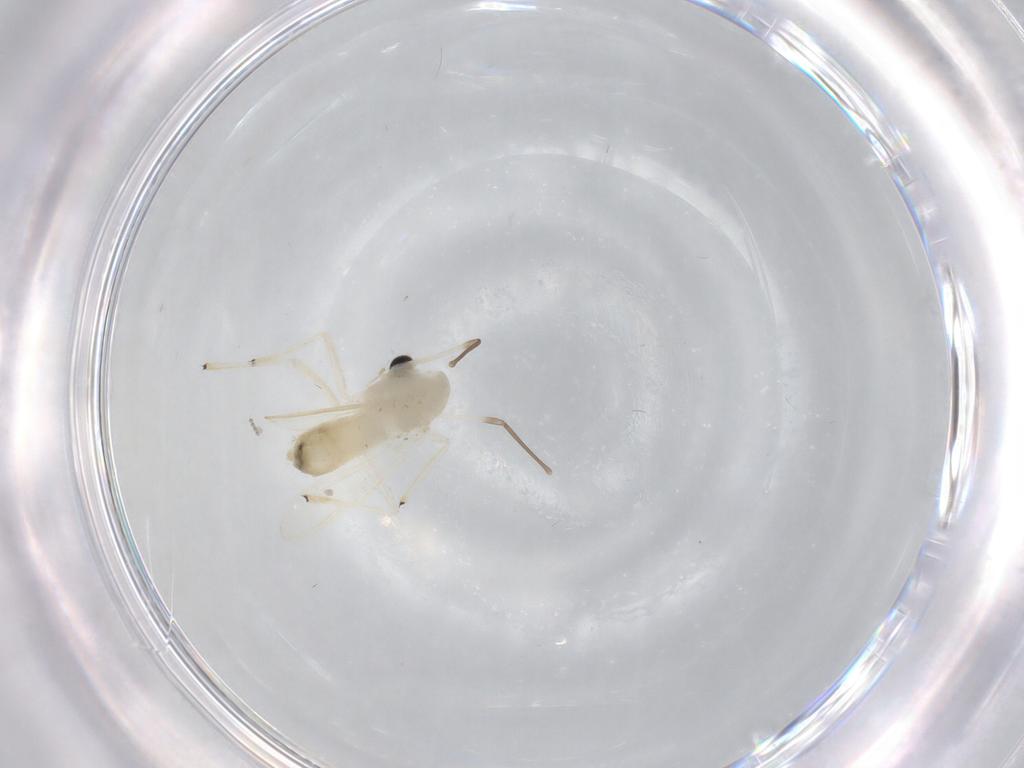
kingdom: Animalia
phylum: Arthropoda
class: Insecta
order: Diptera
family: Chironomidae
